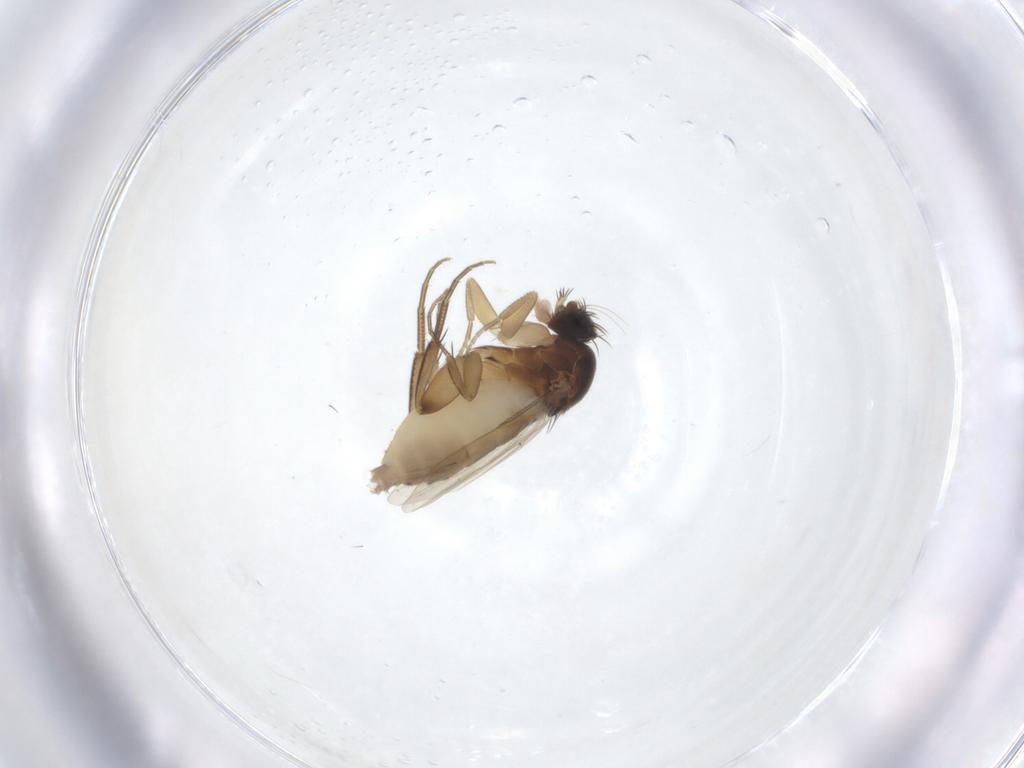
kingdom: Animalia
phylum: Arthropoda
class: Insecta
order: Diptera
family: Phoridae
